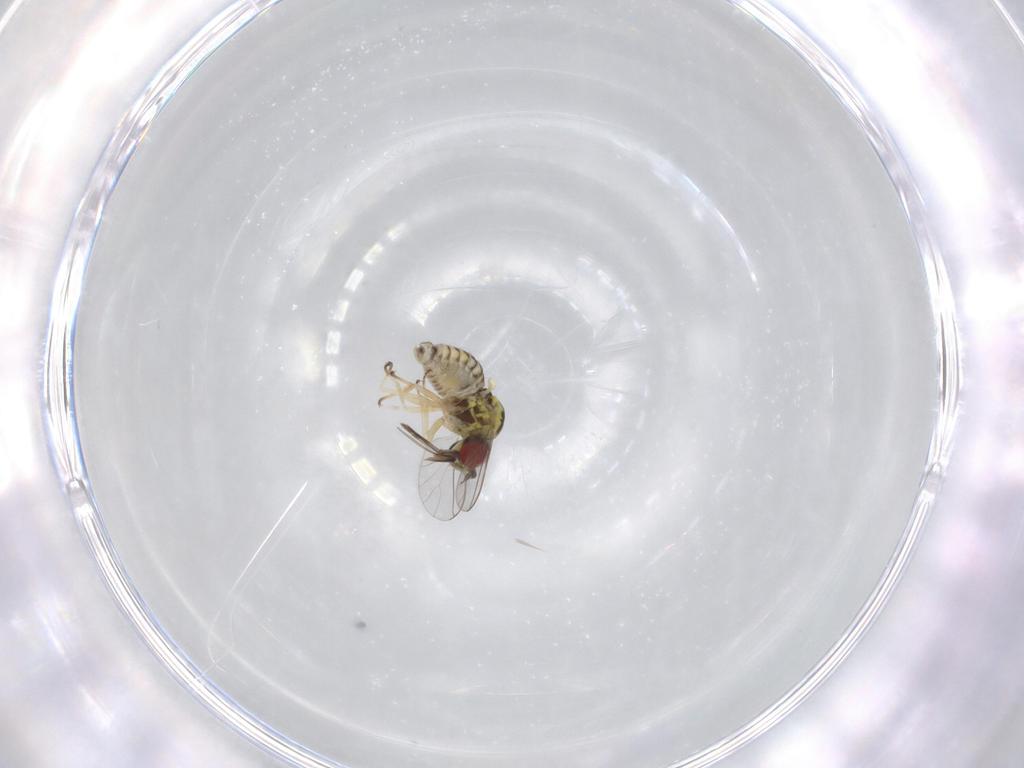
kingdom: Animalia
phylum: Arthropoda
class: Insecta
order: Diptera
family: Bombyliidae
